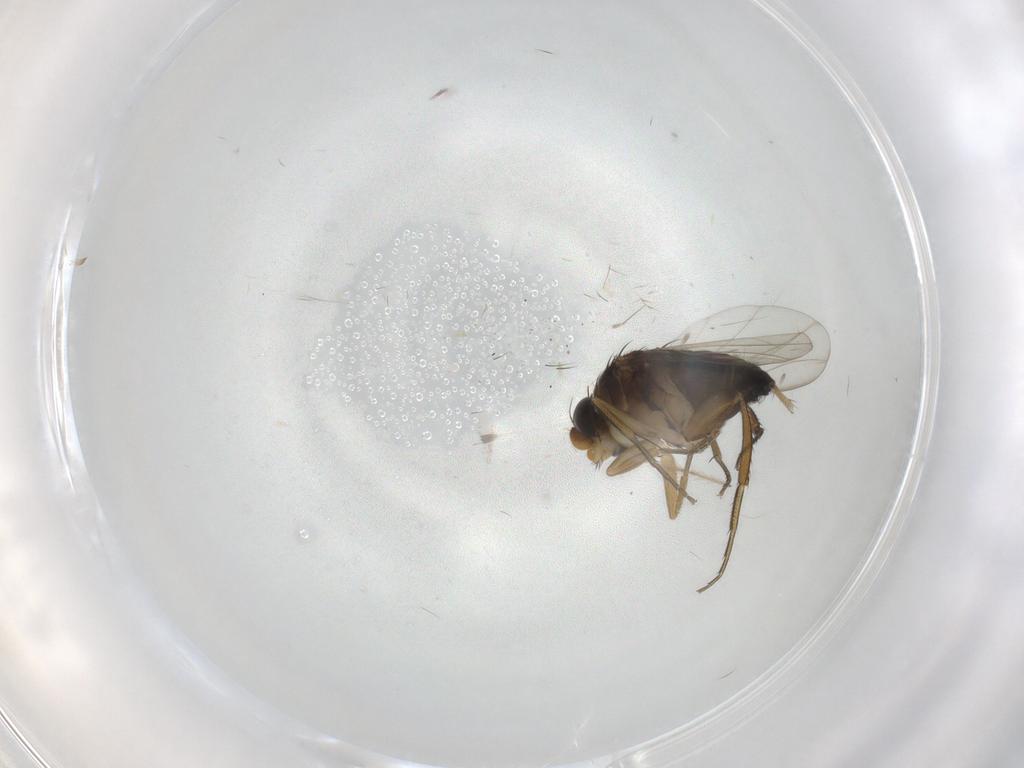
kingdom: Animalia
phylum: Arthropoda
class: Insecta
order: Diptera
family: Phoridae
